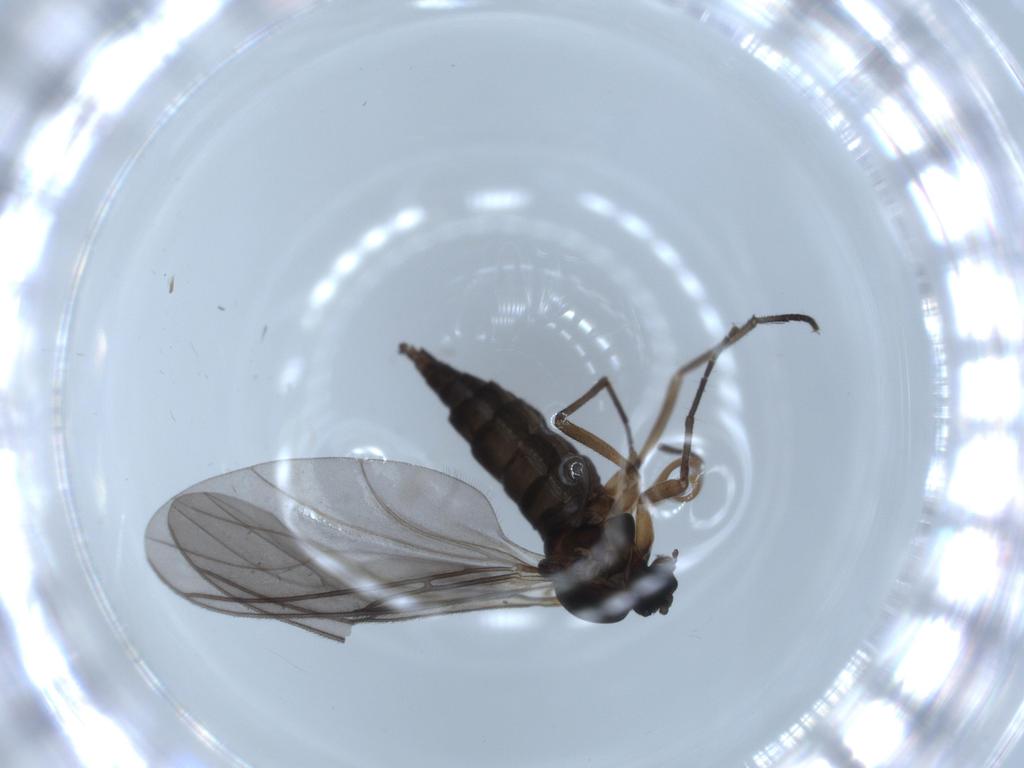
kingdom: Animalia
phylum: Arthropoda
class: Insecta
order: Diptera
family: Sciaridae
